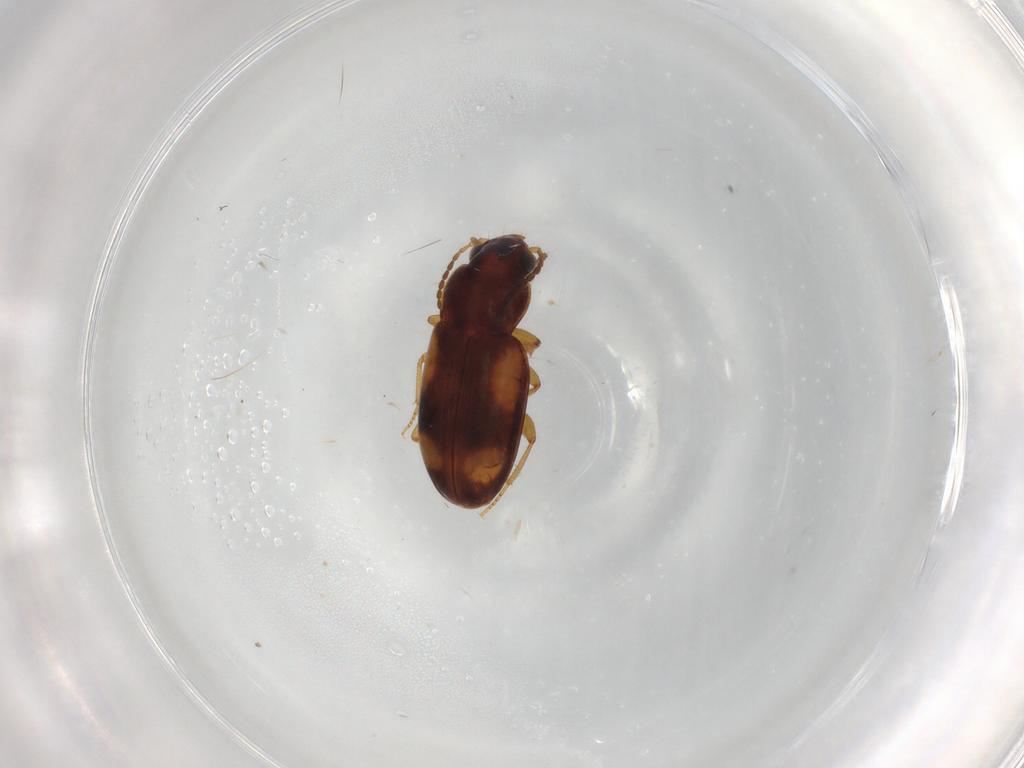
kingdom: Animalia
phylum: Arthropoda
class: Insecta
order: Coleoptera
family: Carabidae
